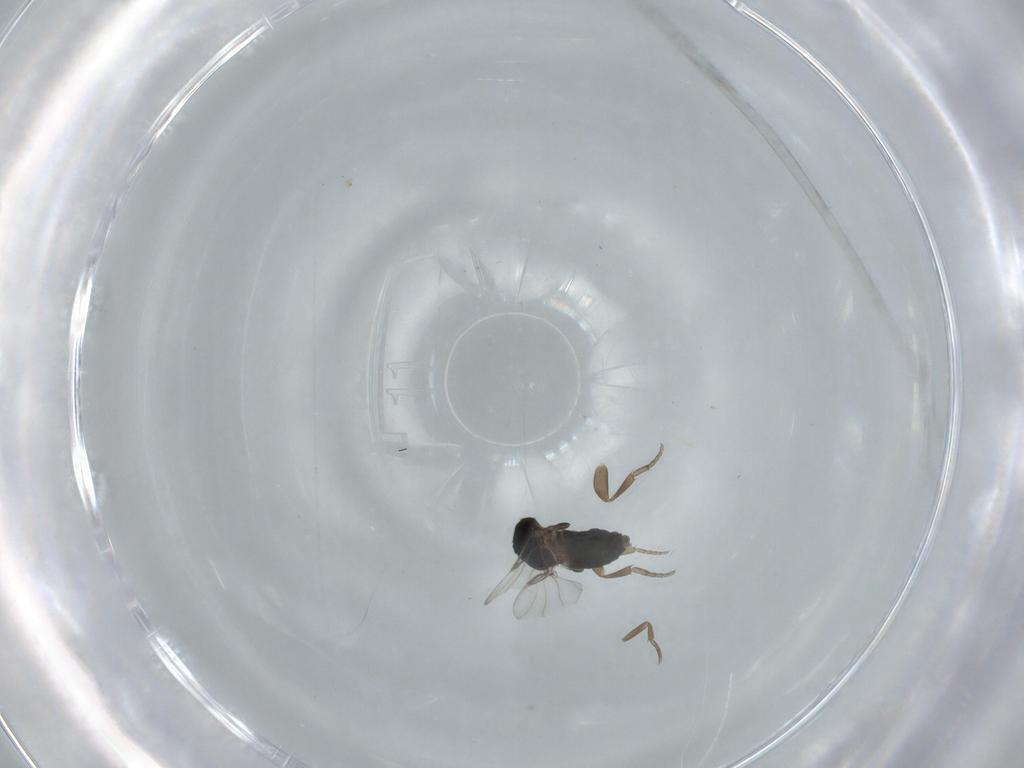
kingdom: Animalia
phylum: Arthropoda
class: Insecta
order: Diptera
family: Phoridae
